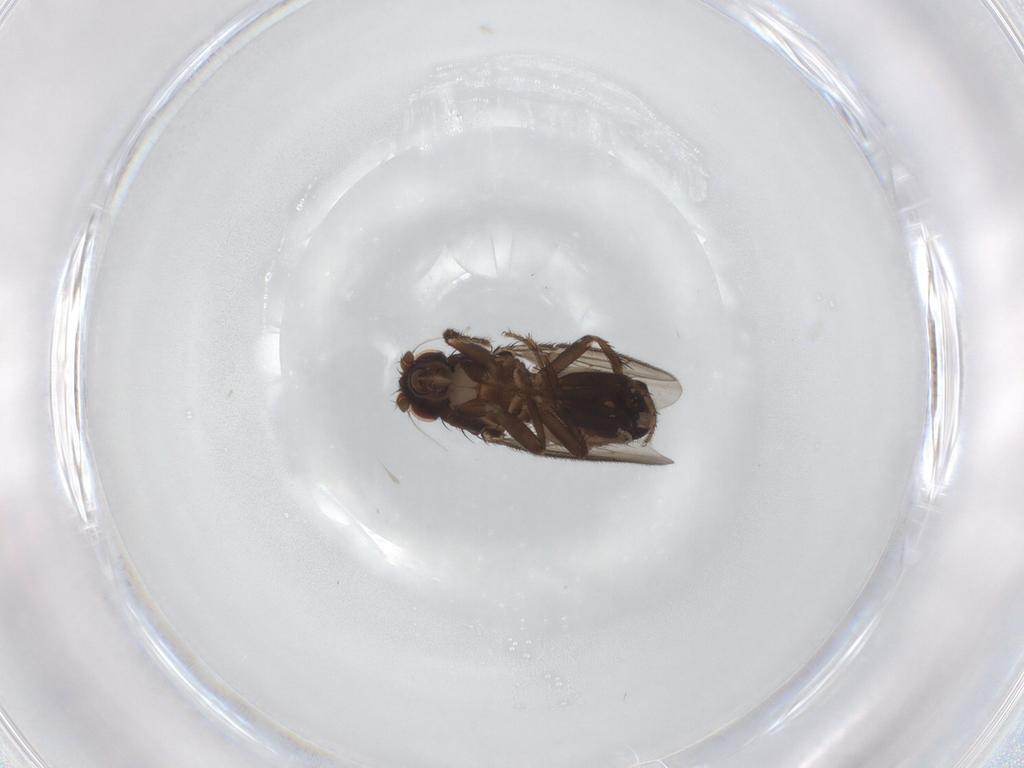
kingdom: Animalia
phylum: Arthropoda
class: Insecta
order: Diptera
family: Sphaeroceridae
